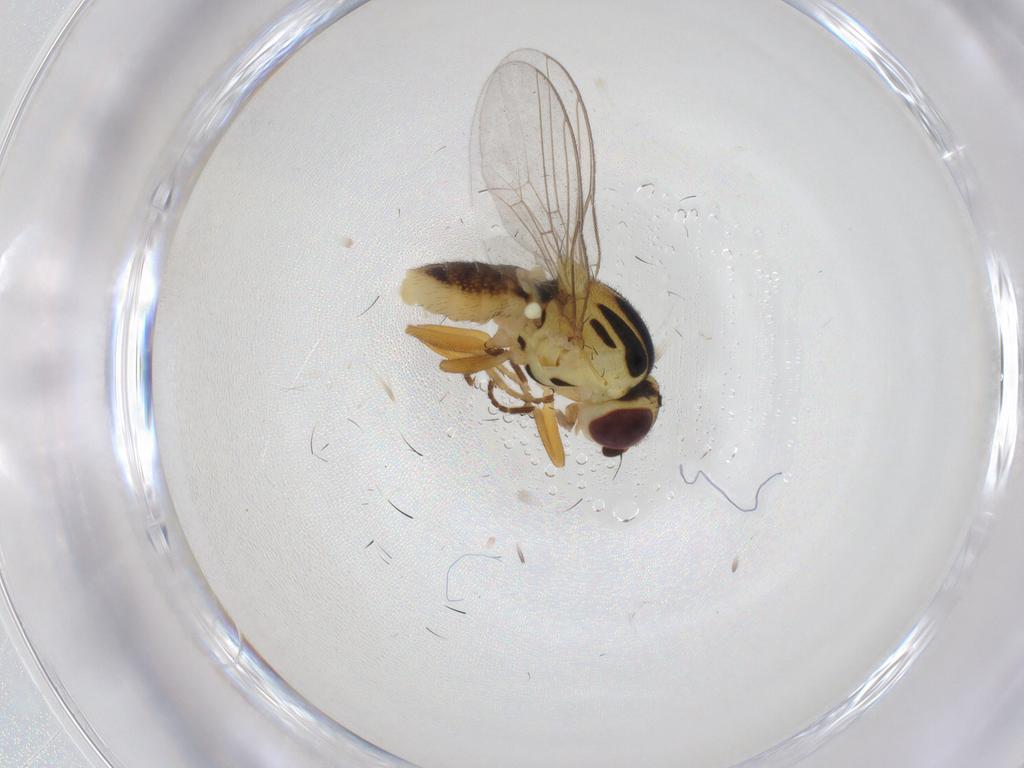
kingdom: Animalia
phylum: Arthropoda
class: Insecta
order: Diptera
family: Chloropidae
